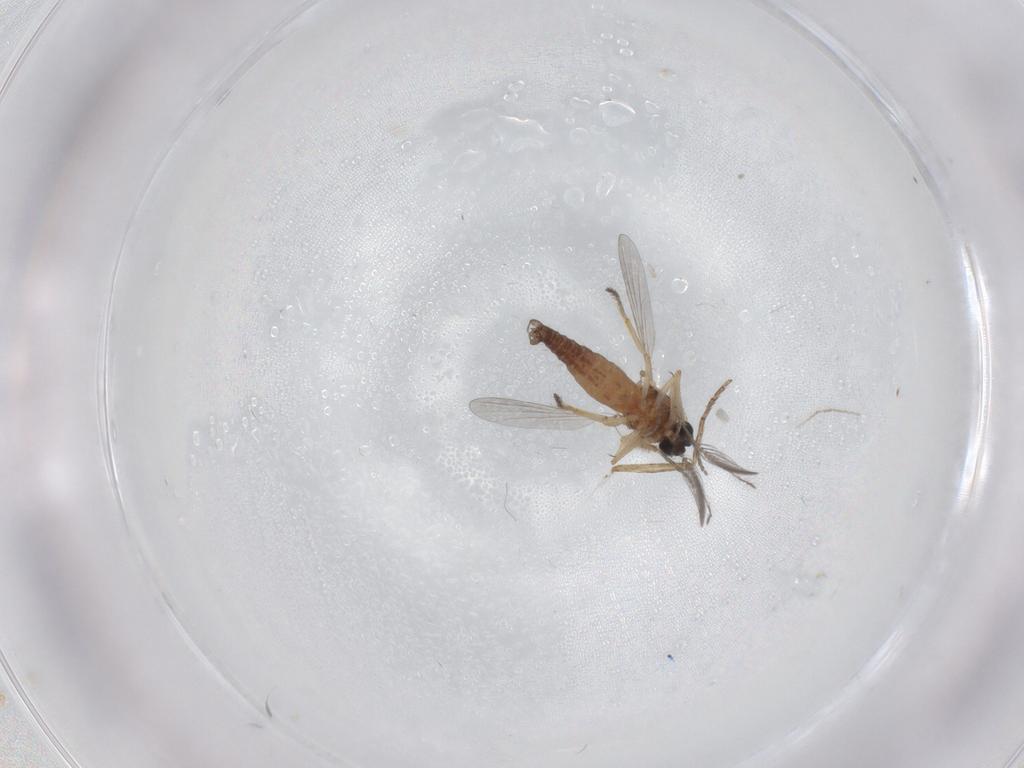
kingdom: Animalia
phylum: Arthropoda
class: Insecta
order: Diptera
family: Ceratopogonidae
